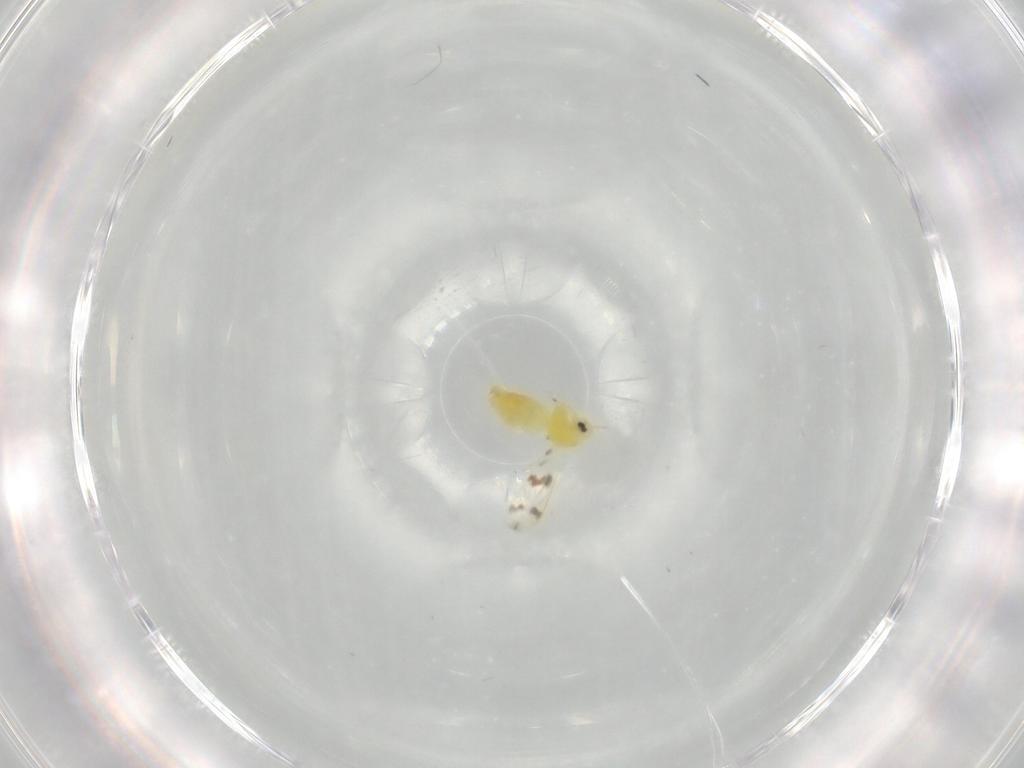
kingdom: Animalia
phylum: Arthropoda
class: Insecta
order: Hemiptera
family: Aleyrodidae
